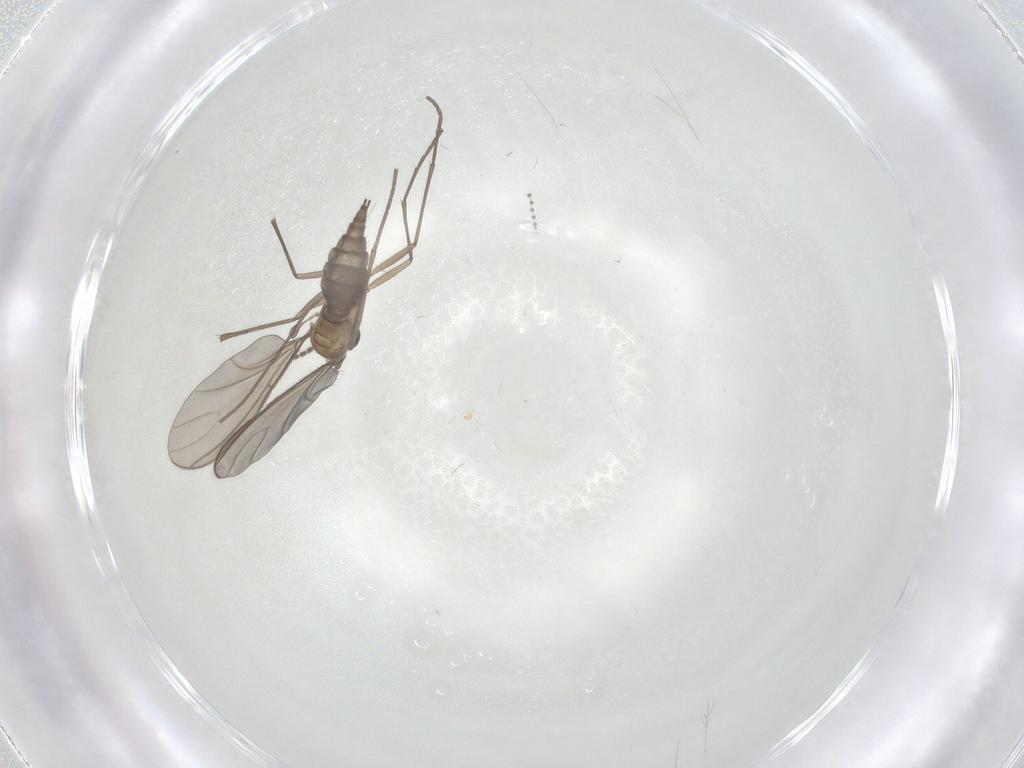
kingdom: Animalia
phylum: Arthropoda
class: Insecta
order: Diptera
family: Sciaridae
